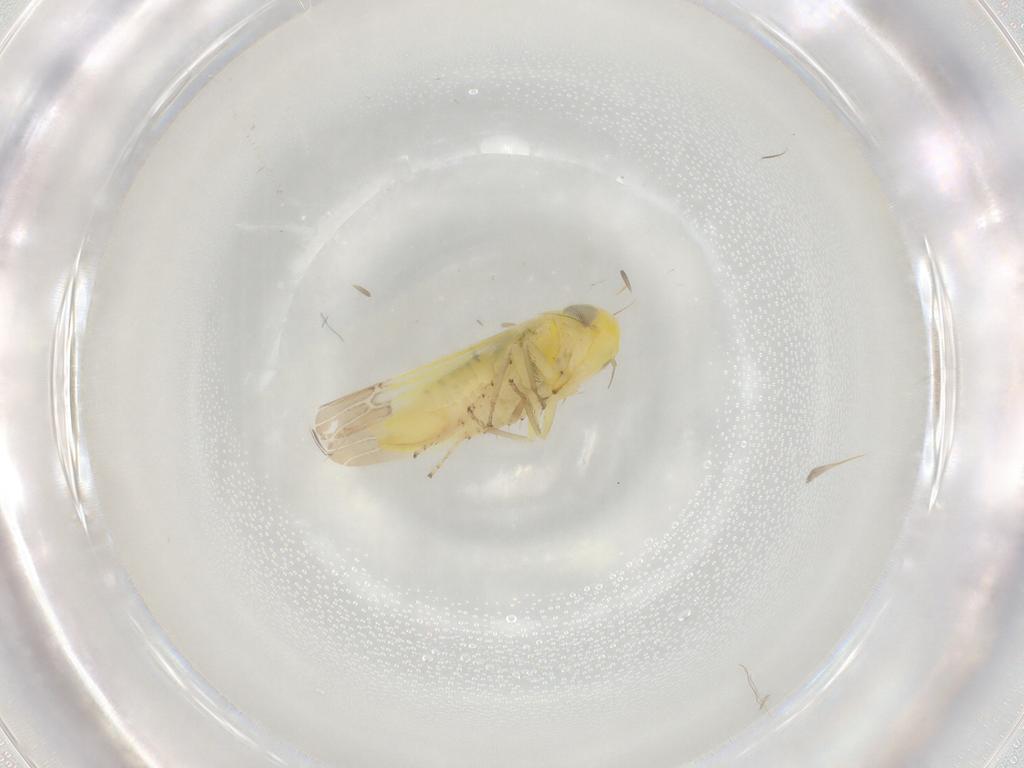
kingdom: Animalia
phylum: Arthropoda
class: Insecta
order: Hemiptera
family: Cicadellidae
